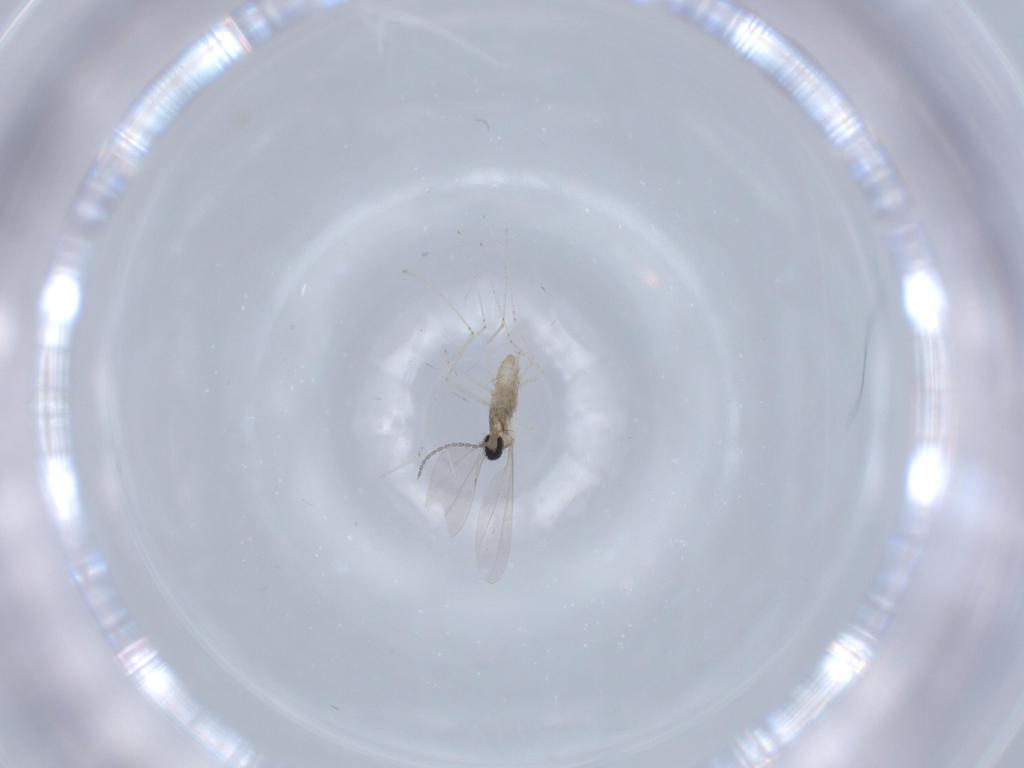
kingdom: Animalia
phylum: Arthropoda
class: Insecta
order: Diptera
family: Cecidomyiidae
